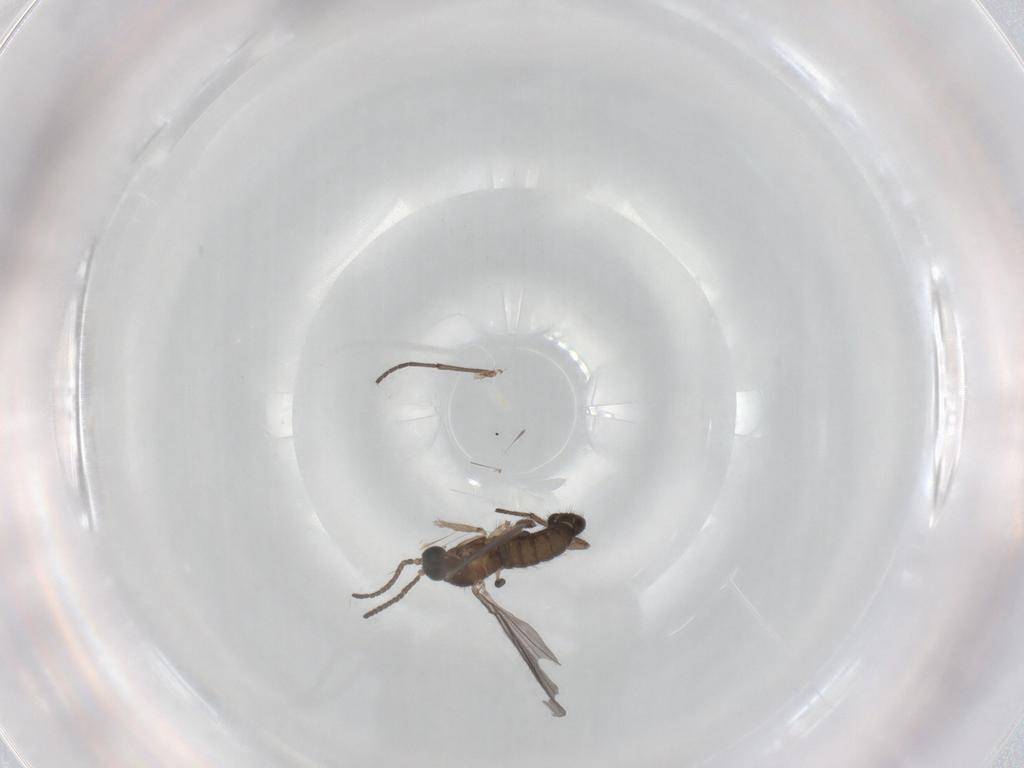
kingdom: Animalia
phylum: Arthropoda
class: Insecta
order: Diptera
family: Sciaridae
